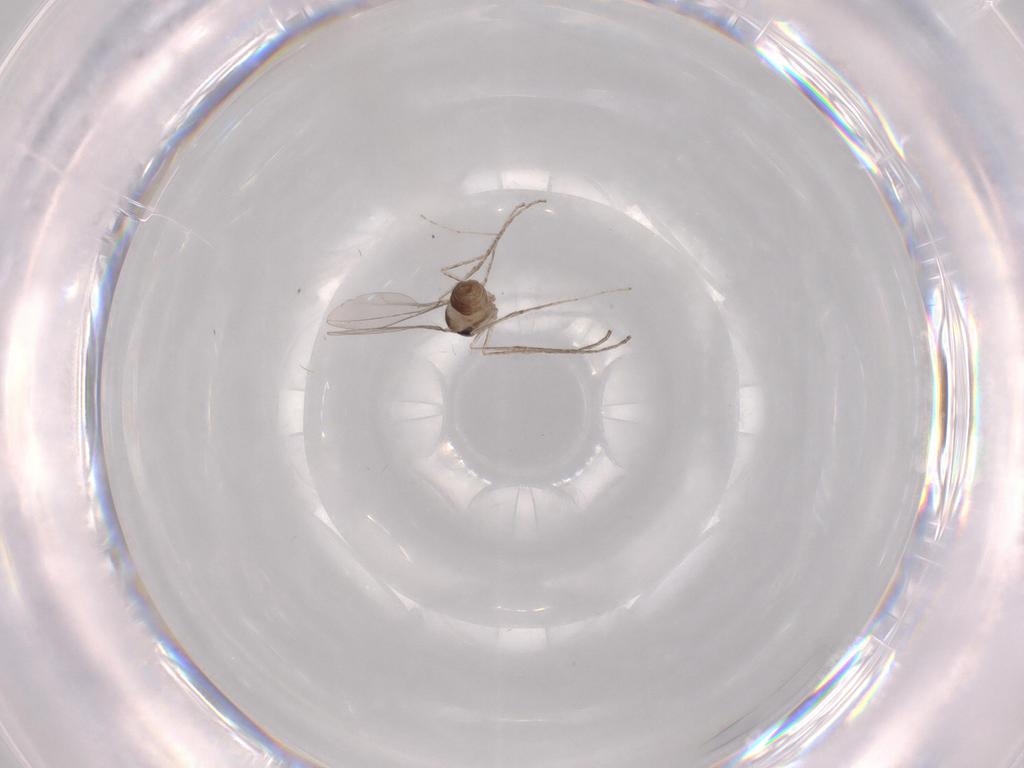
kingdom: Animalia
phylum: Arthropoda
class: Insecta
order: Diptera
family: Cecidomyiidae
